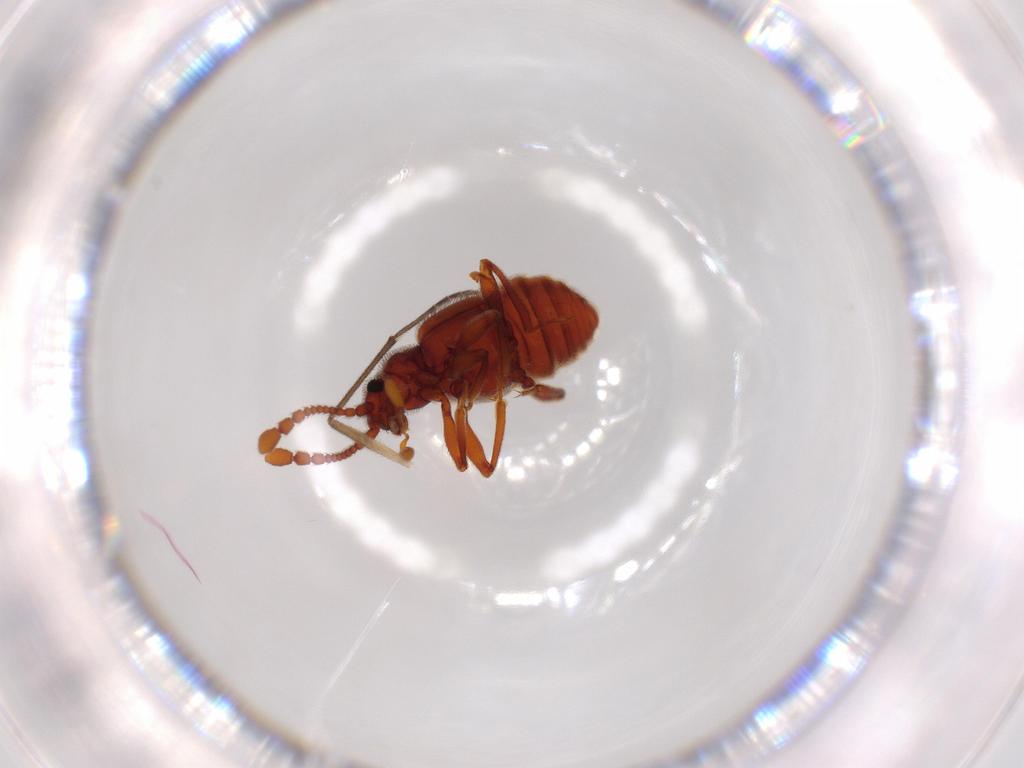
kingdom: Animalia
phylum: Arthropoda
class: Insecta
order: Coleoptera
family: Staphylinidae
